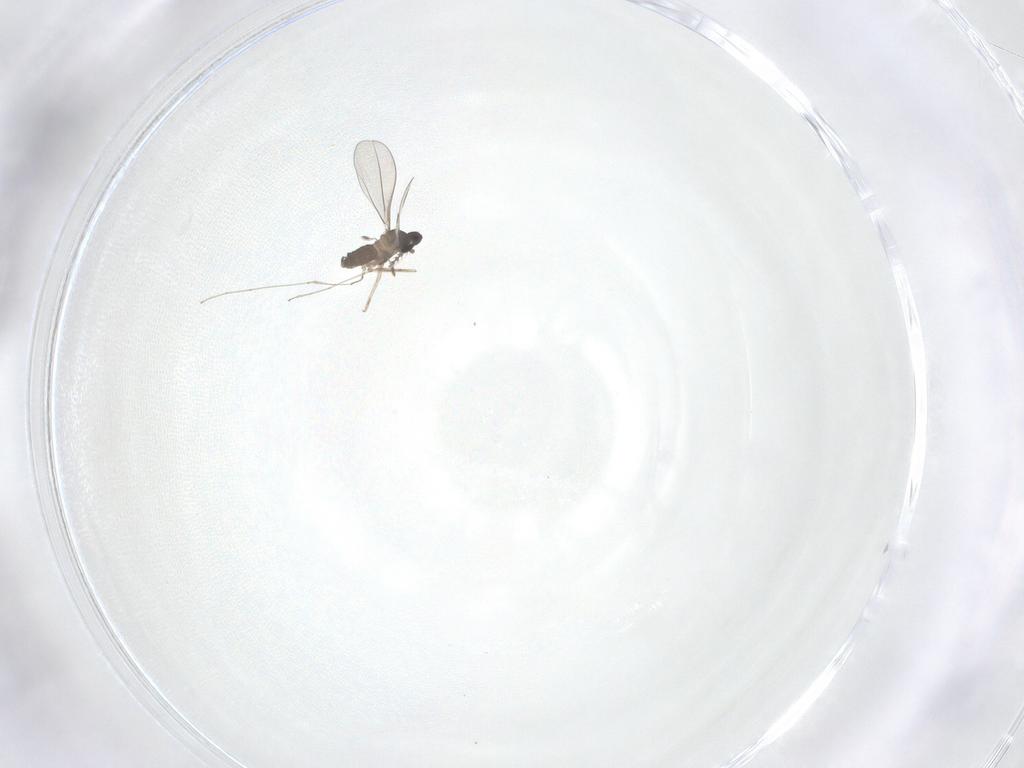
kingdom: Animalia
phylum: Arthropoda
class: Insecta
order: Diptera
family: Cecidomyiidae
